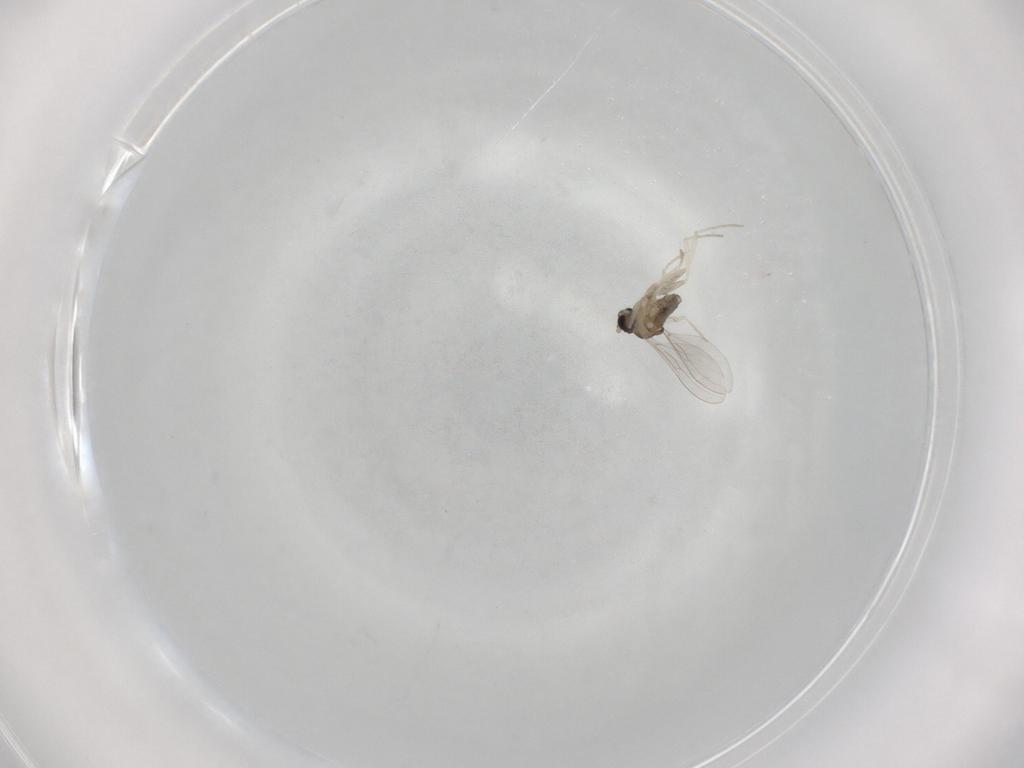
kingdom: Animalia
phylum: Arthropoda
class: Insecta
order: Diptera
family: Cecidomyiidae
